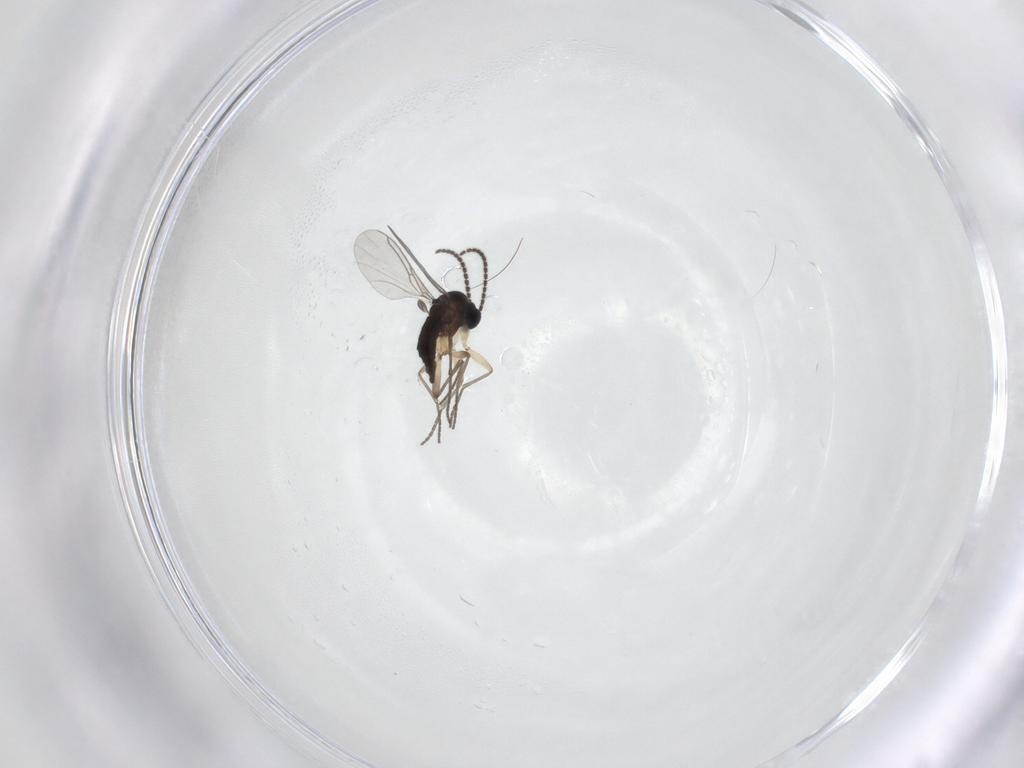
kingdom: Animalia
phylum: Arthropoda
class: Insecta
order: Diptera
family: Phoridae
